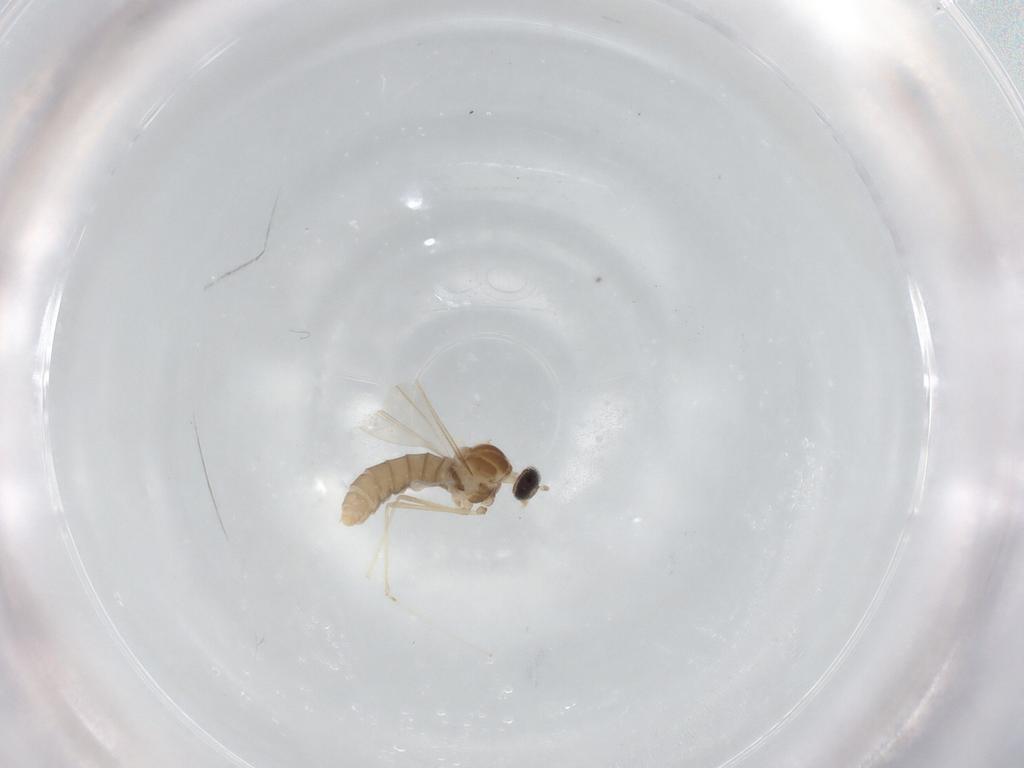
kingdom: Animalia
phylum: Arthropoda
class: Insecta
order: Diptera
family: Cecidomyiidae
